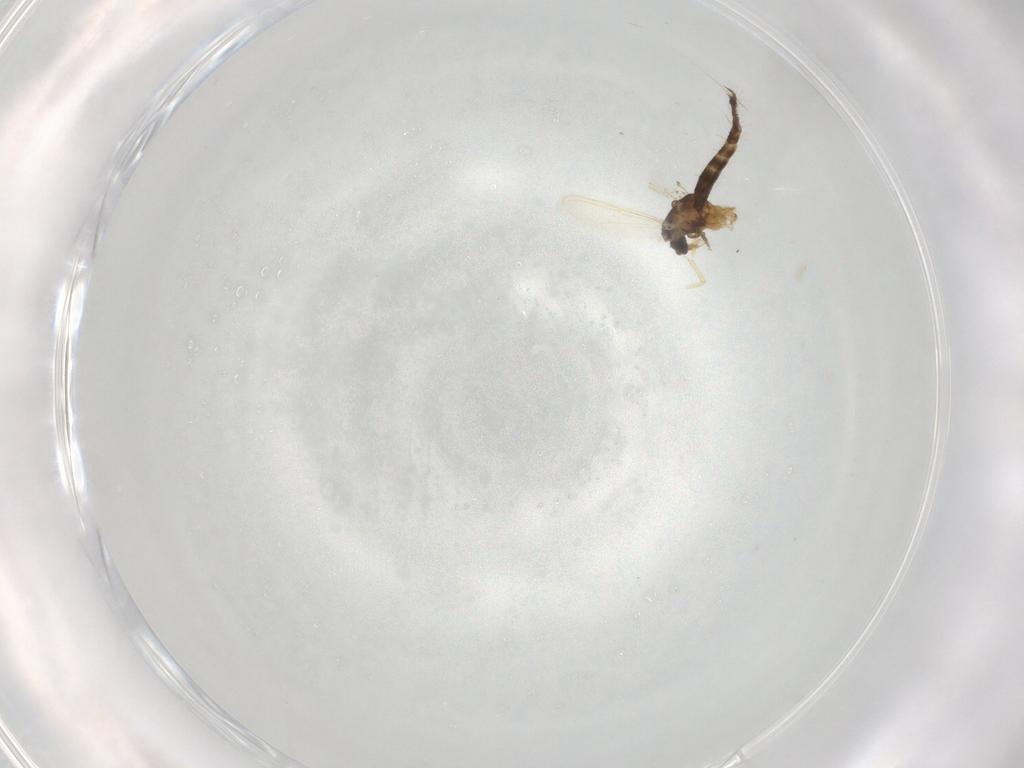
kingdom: Animalia
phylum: Arthropoda
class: Insecta
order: Diptera
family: Chironomidae
